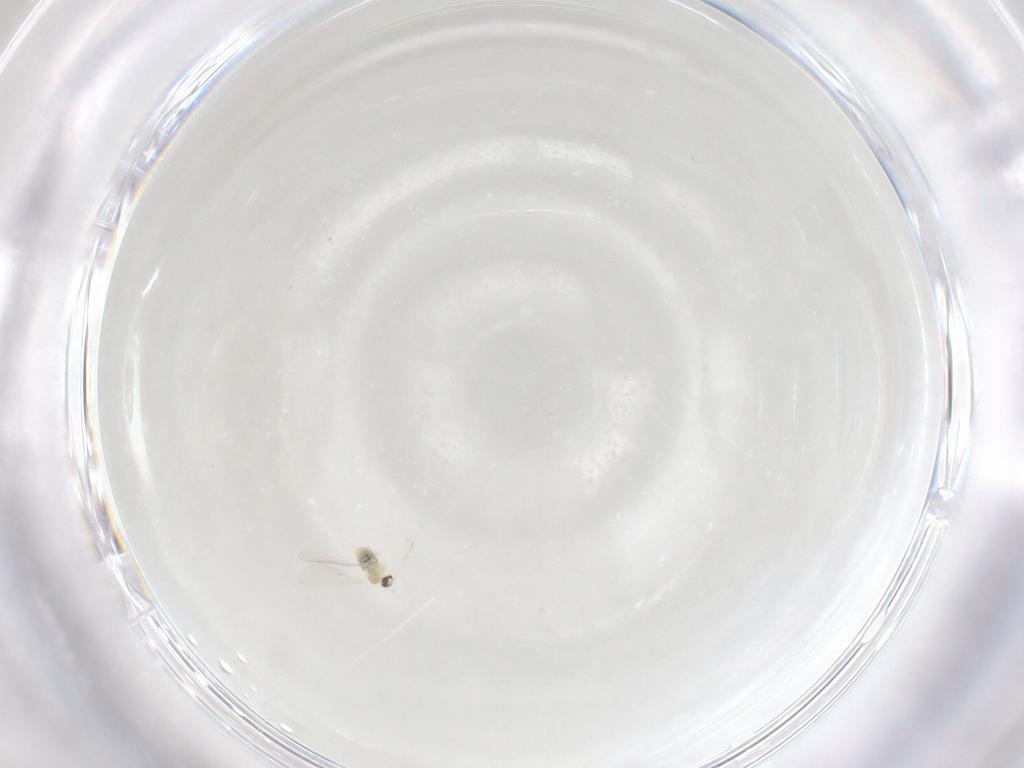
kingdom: Animalia
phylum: Arthropoda
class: Insecta
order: Diptera
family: Cecidomyiidae
